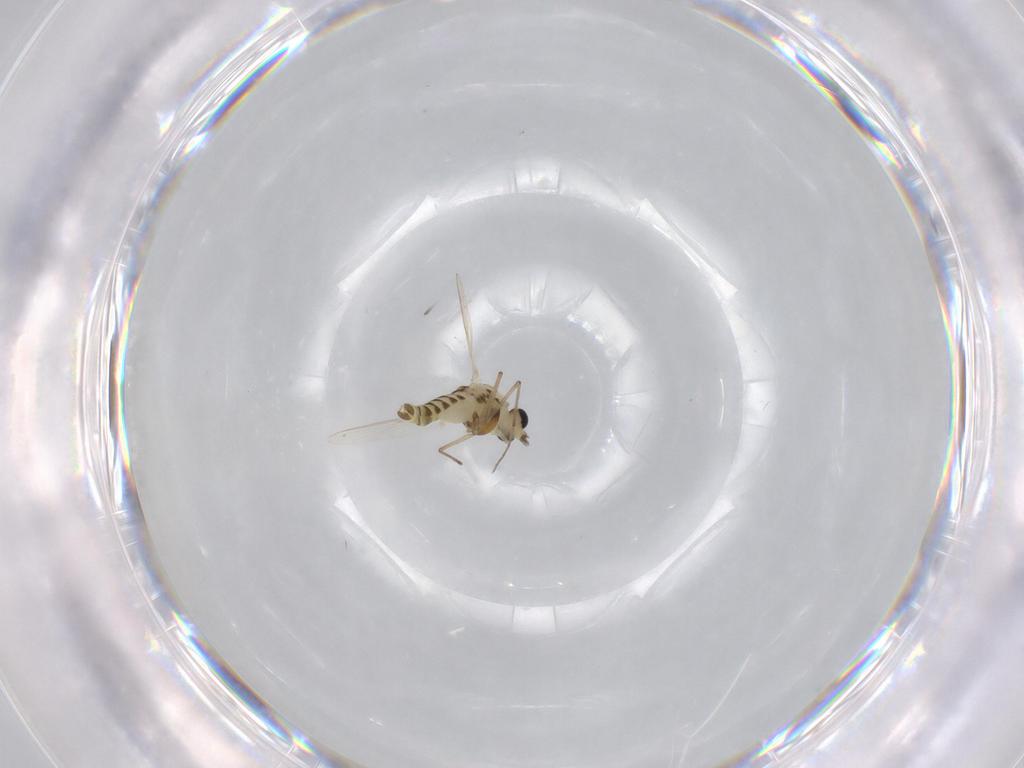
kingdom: Animalia
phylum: Arthropoda
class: Insecta
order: Diptera
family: Chironomidae
